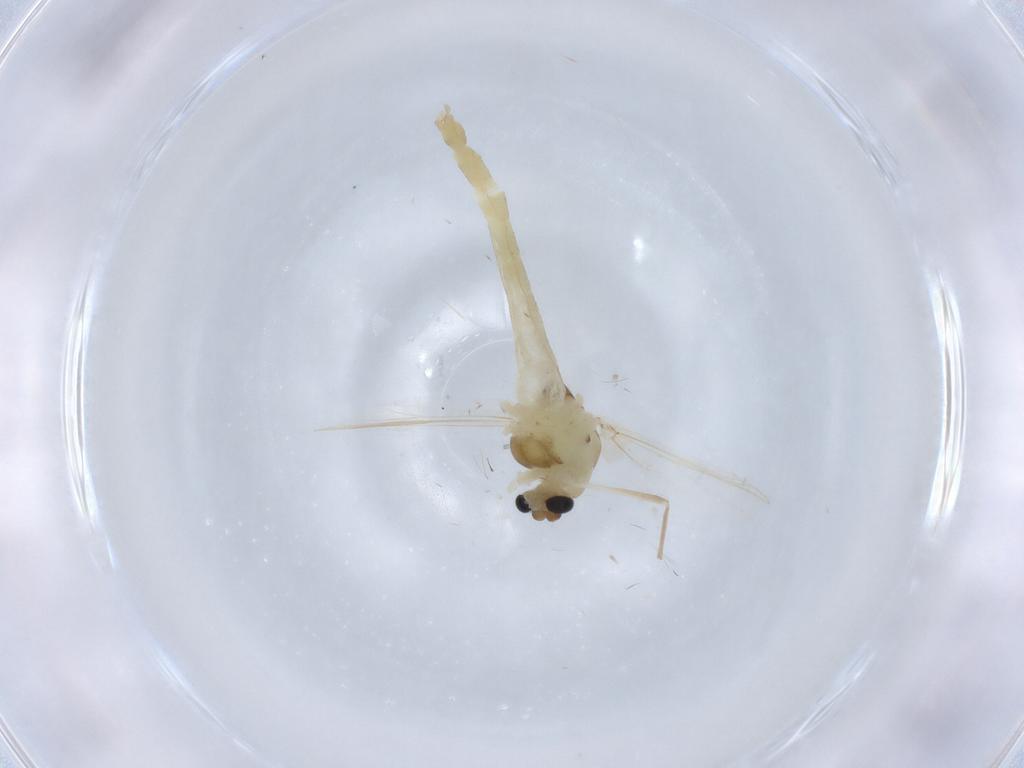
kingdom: Animalia
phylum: Arthropoda
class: Insecta
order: Diptera
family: Chironomidae
